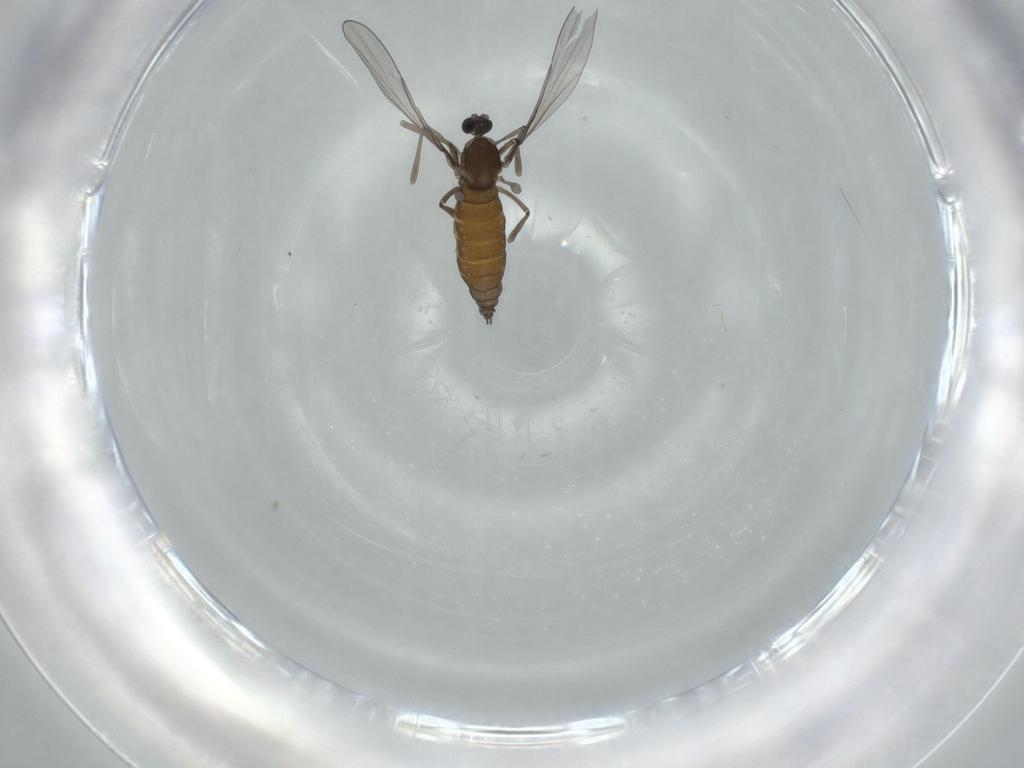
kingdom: Animalia
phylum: Arthropoda
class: Insecta
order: Diptera
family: Cecidomyiidae
